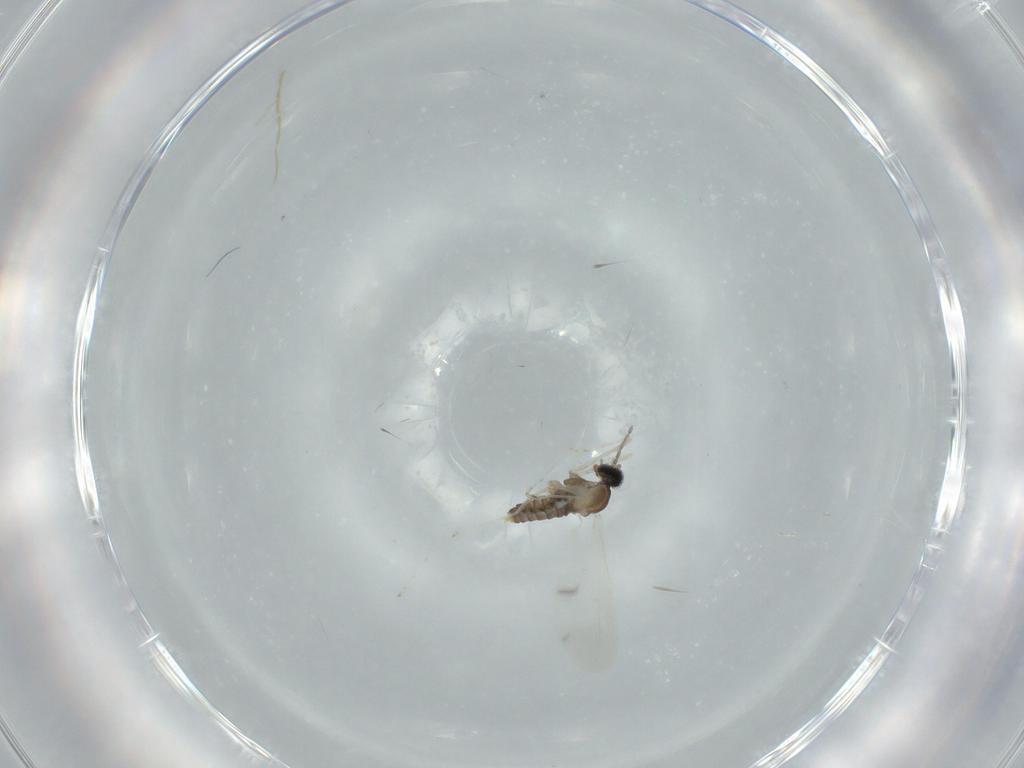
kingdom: Animalia
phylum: Arthropoda
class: Insecta
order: Diptera
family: Cecidomyiidae
